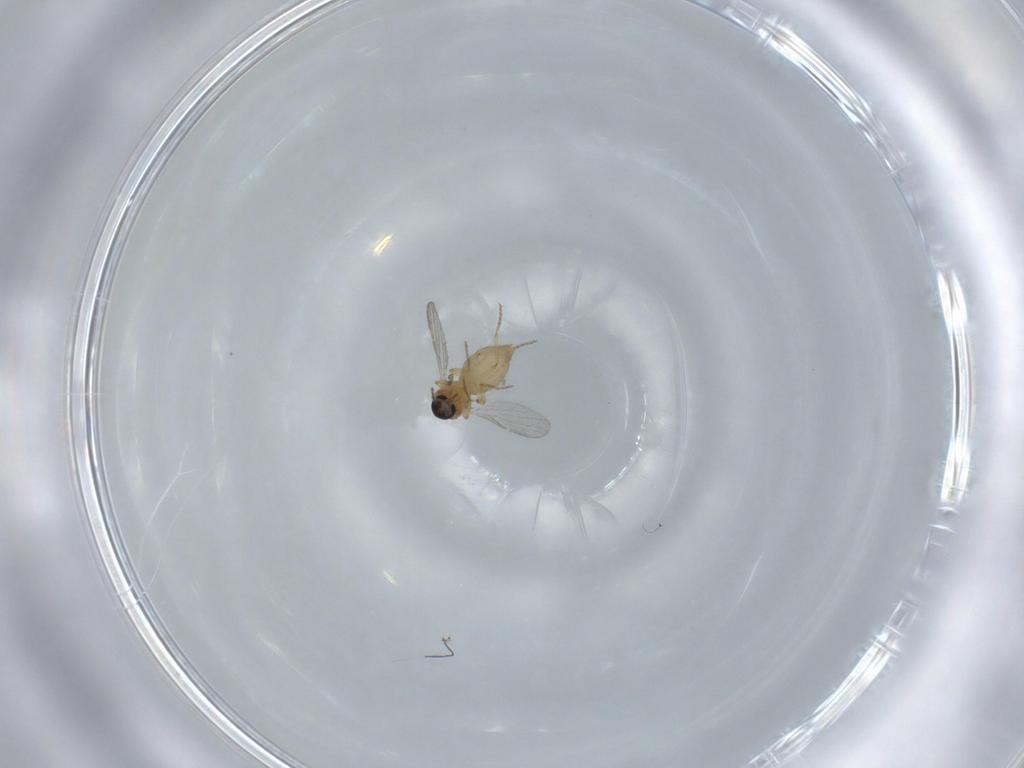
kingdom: Animalia
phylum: Arthropoda
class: Insecta
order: Diptera
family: Ceratopogonidae
